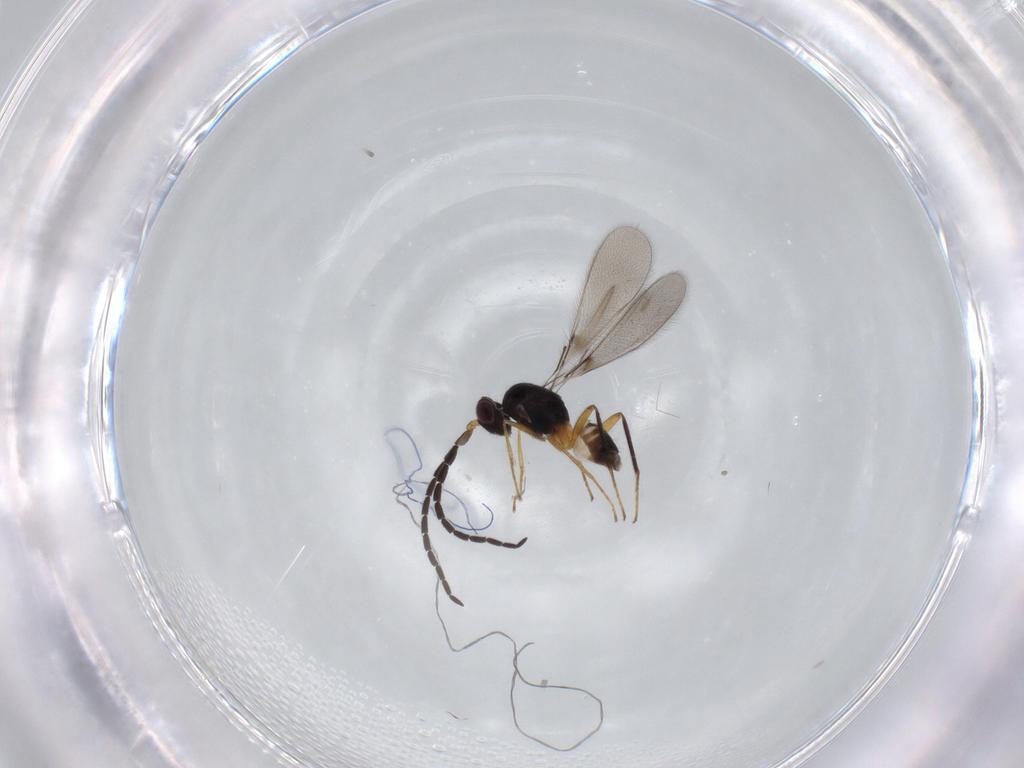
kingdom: Animalia
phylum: Arthropoda
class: Insecta
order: Hymenoptera
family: Mymaridae
